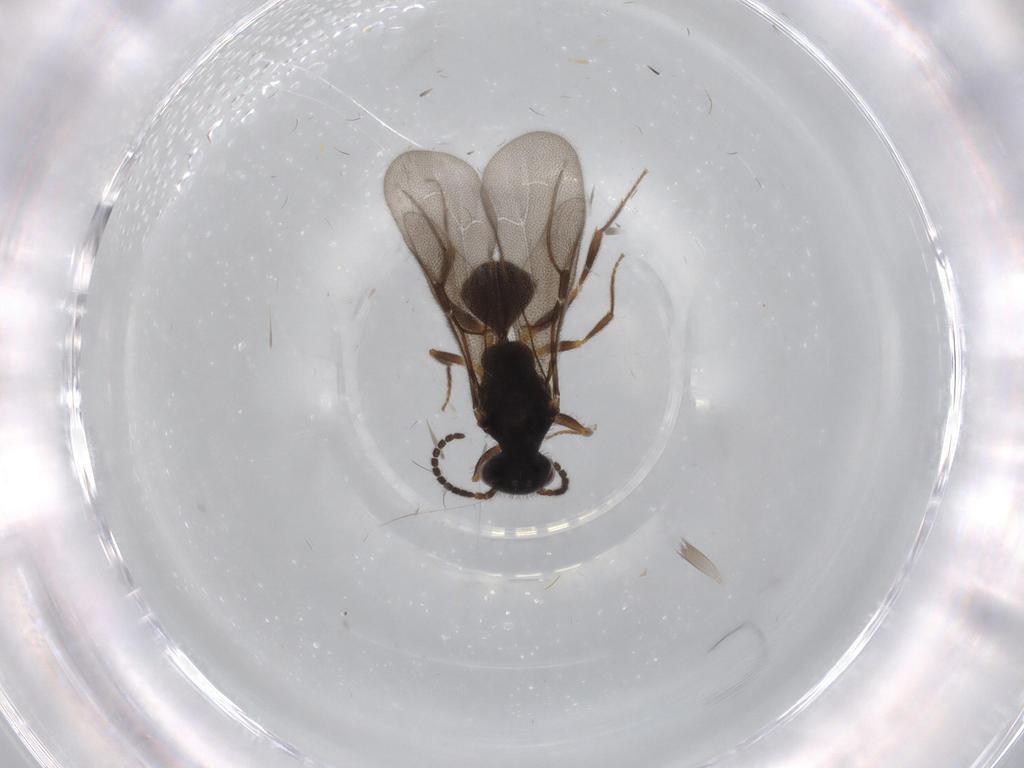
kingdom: Animalia
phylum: Arthropoda
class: Insecta
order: Hymenoptera
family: Bethylidae
